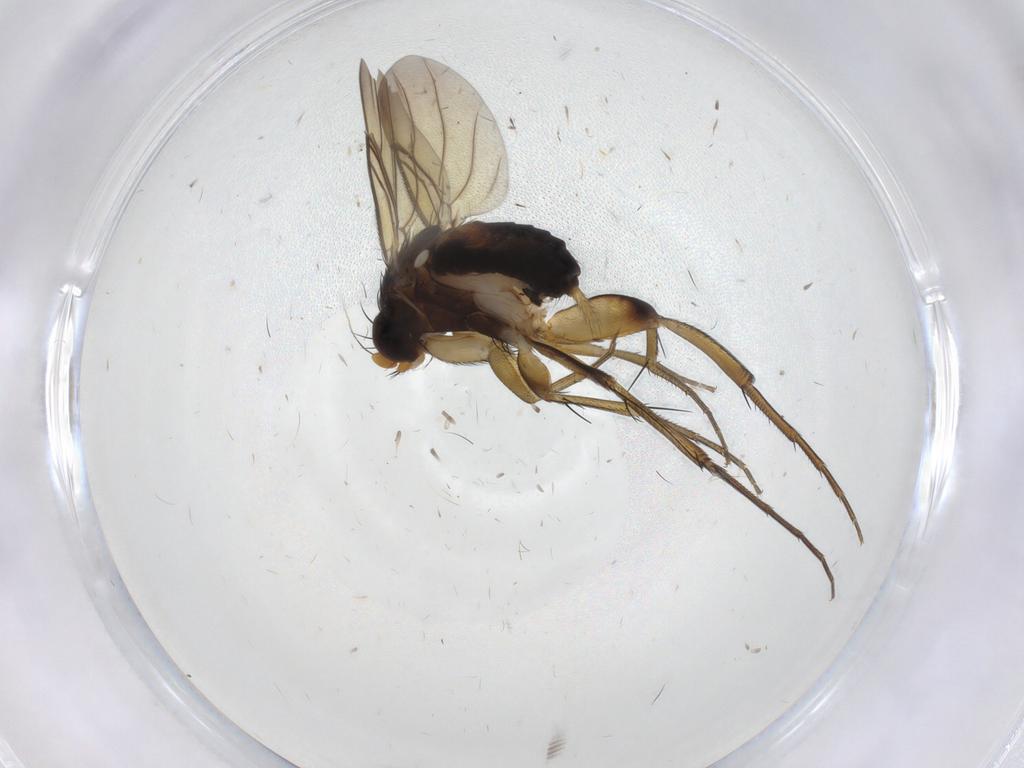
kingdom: Animalia
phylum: Arthropoda
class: Insecta
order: Diptera
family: Phoridae
